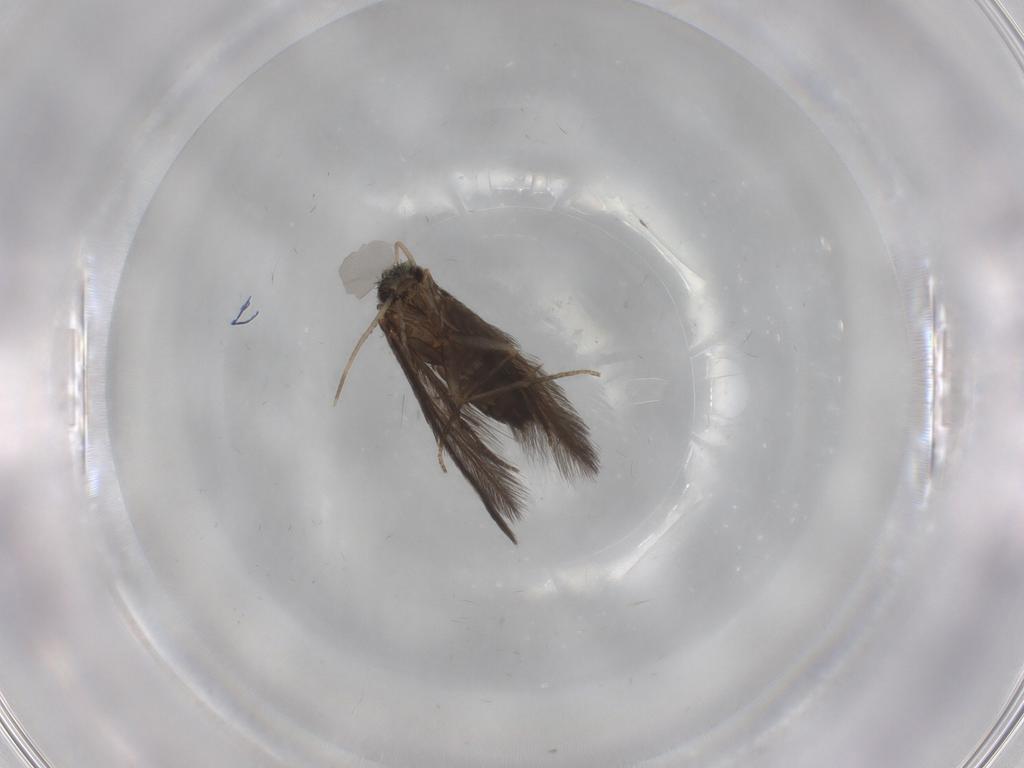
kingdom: Animalia
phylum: Arthropoda
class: Insecta
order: Trichoptera
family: Hydroptilidae
